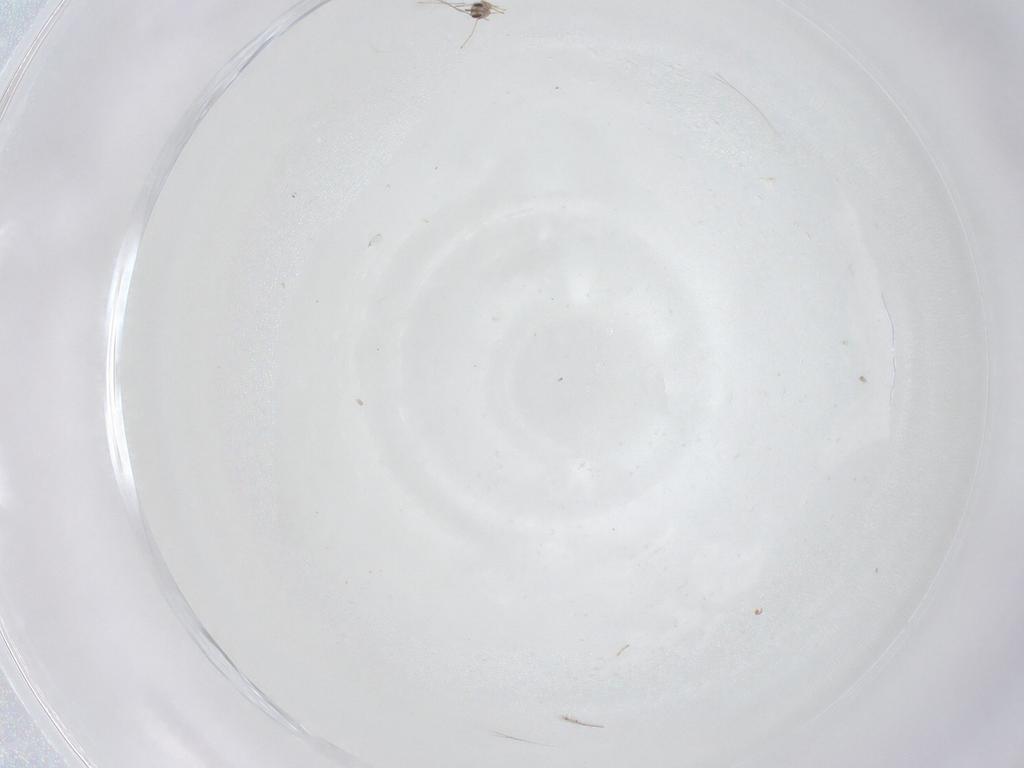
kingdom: Animalia
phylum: Arthropoda
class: Insecta
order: Hymenoptera
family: Mymaridae
